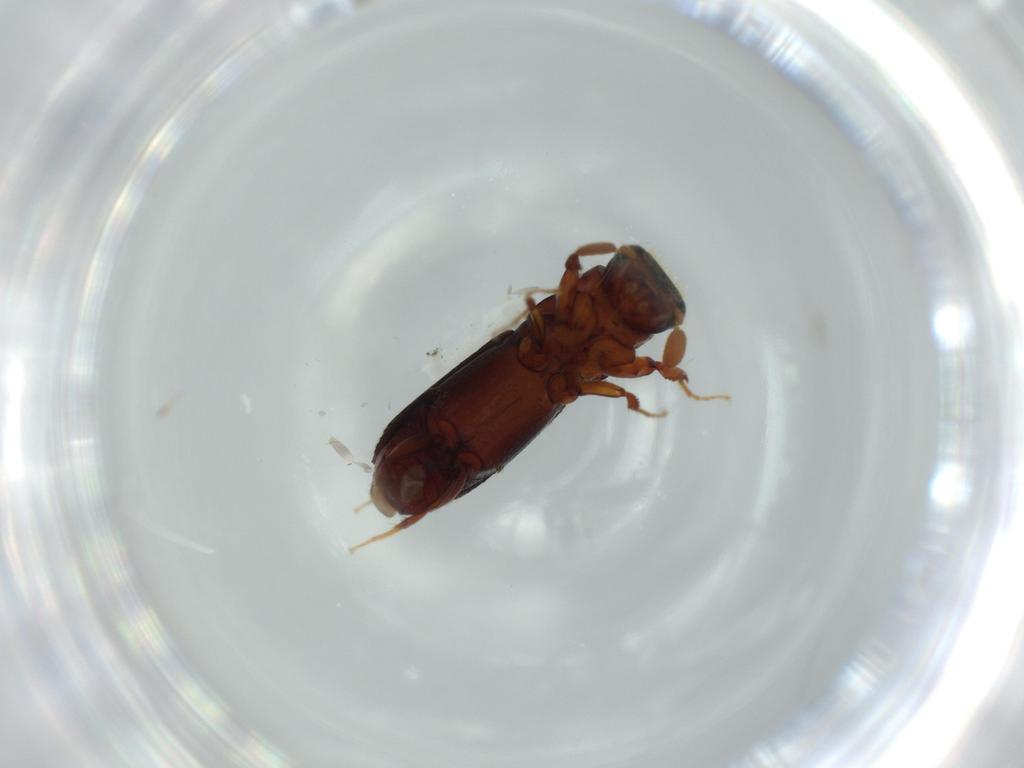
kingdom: Animalia
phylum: Arthropoda
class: Insecta
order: Coleoptera
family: Curculionidae
